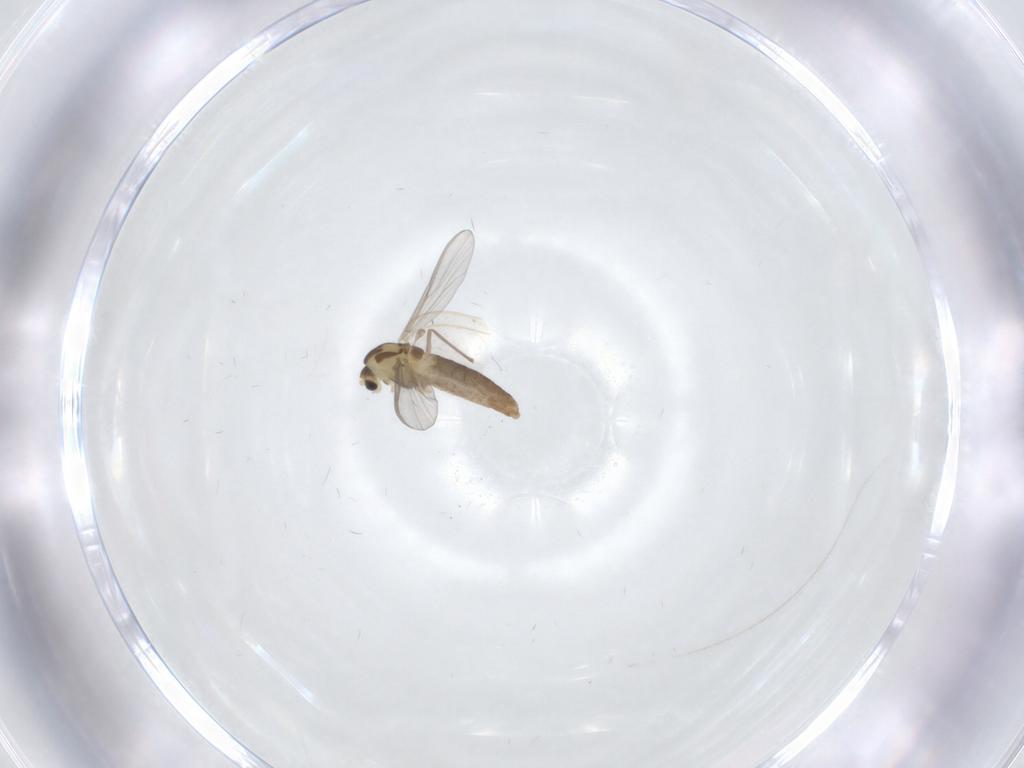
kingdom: Animalia
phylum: Arthropoda
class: Insecta
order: Diptera
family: Chironomidae
